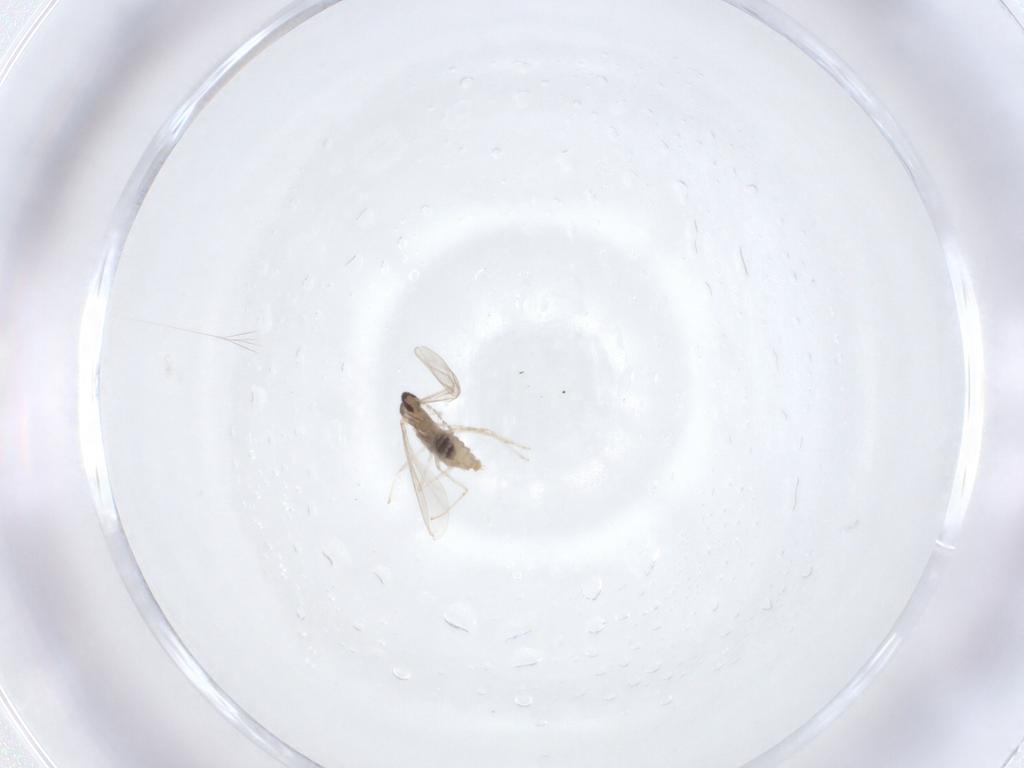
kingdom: Animalia
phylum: Arthropoda
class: Insecta
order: Diptera
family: Cecidomyiidae
